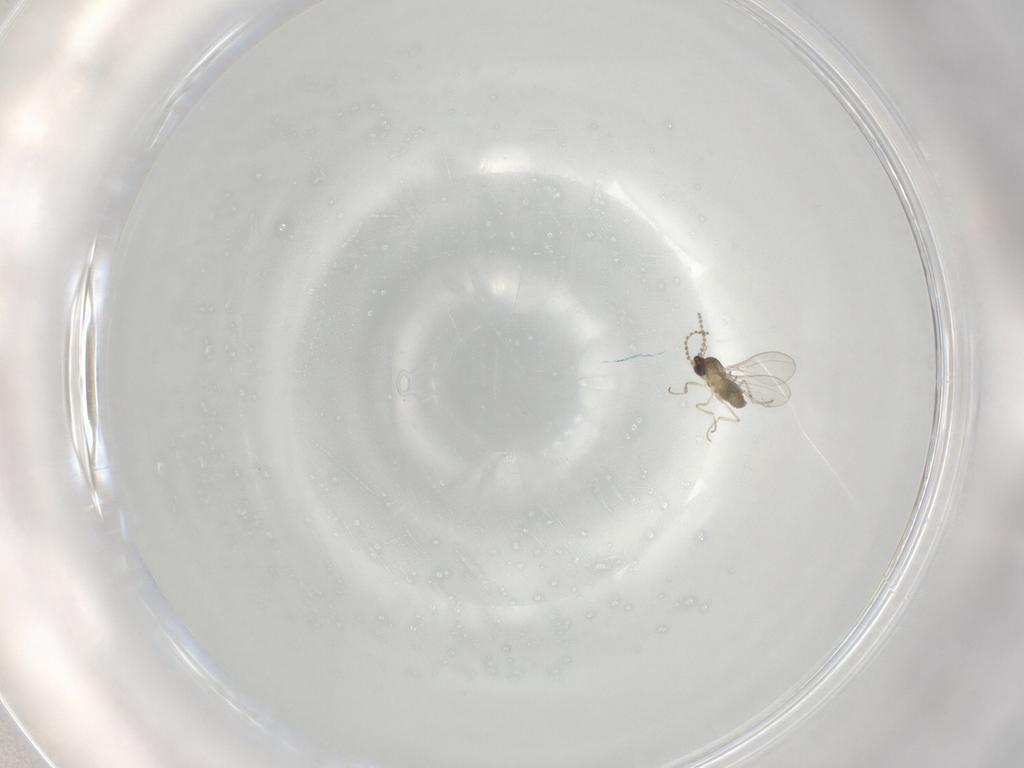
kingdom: Animalia
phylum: Arthropoda
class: Insecta
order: Diptera
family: Cecidomyiidae
